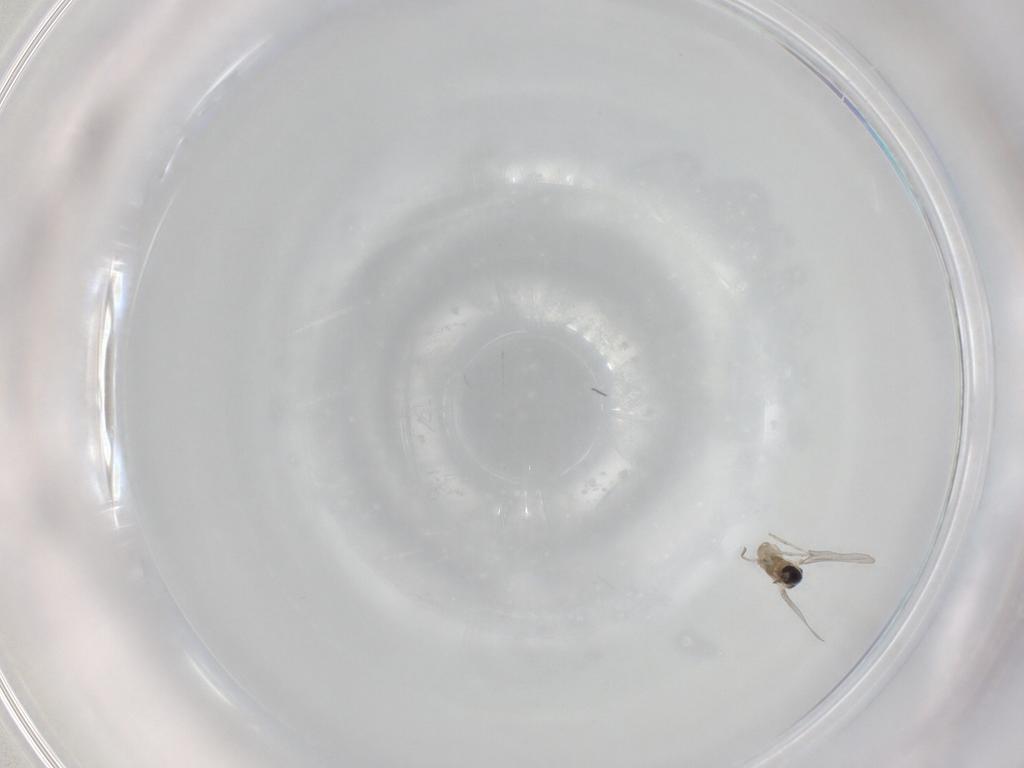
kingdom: Animalia
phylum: Arthropoda
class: Insecta
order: Diptera
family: Cecidomyiidae
